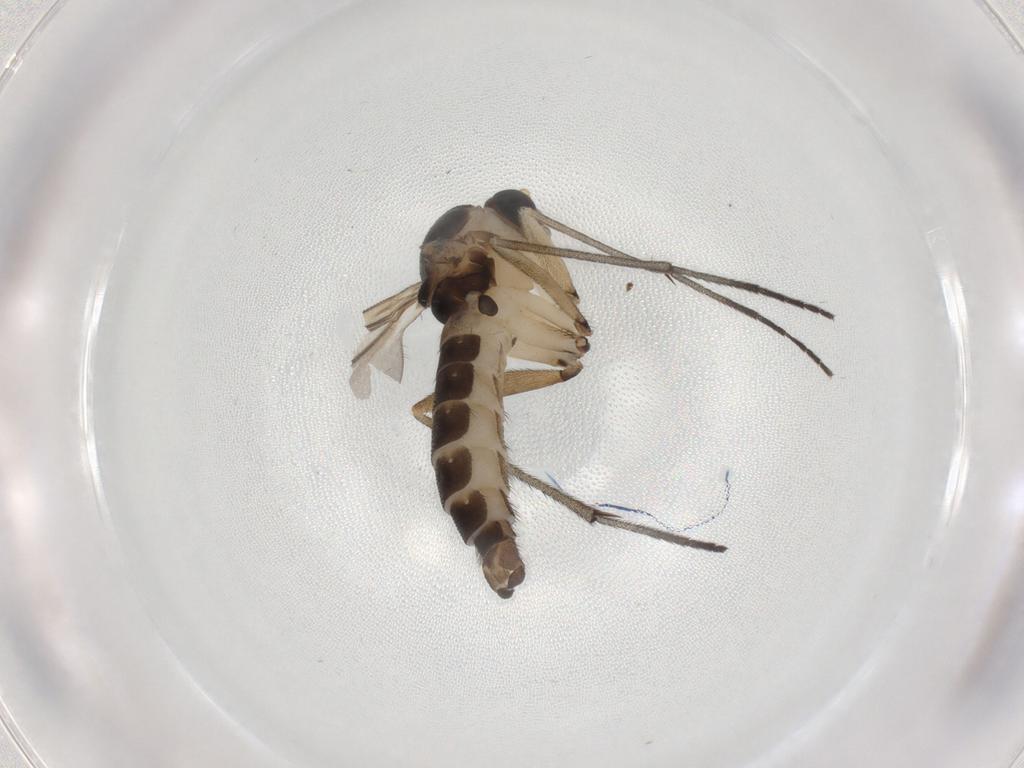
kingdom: Animalia
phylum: Arthropoda
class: Insecta
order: Diptera
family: Sciaridae
